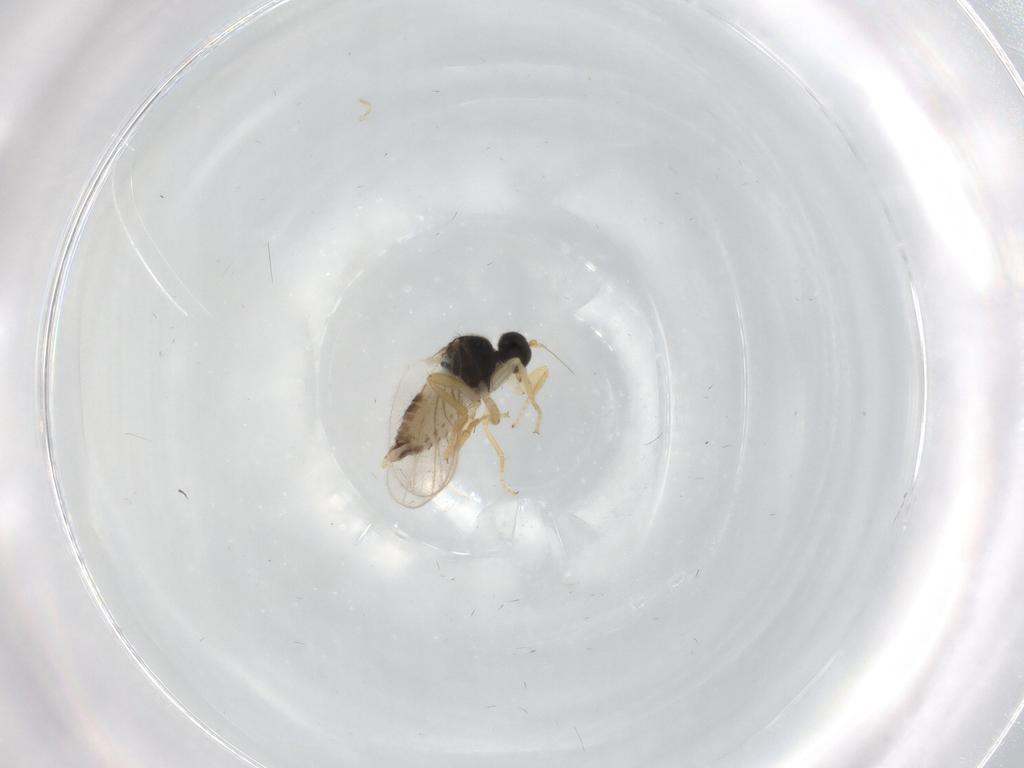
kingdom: Animalia
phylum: Arthropoda
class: Insecta
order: Diptera
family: Hybotidae
